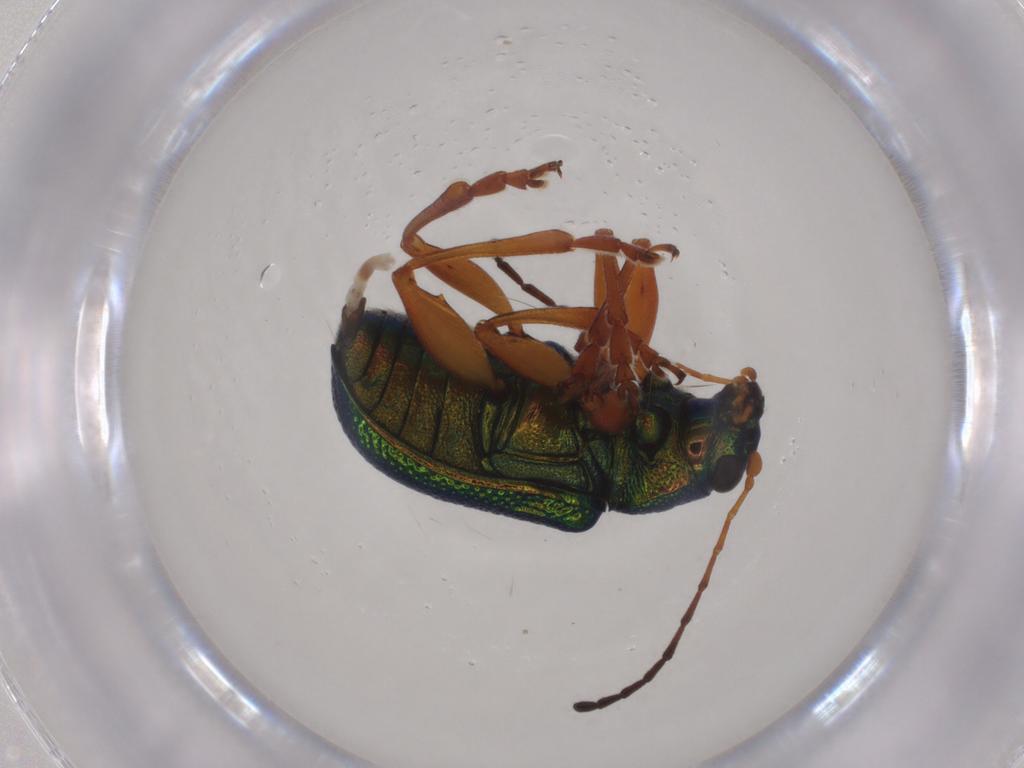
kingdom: Animalia
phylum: Arthropoda
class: Insecta
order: Coleoptera
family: Chrysomelidae
